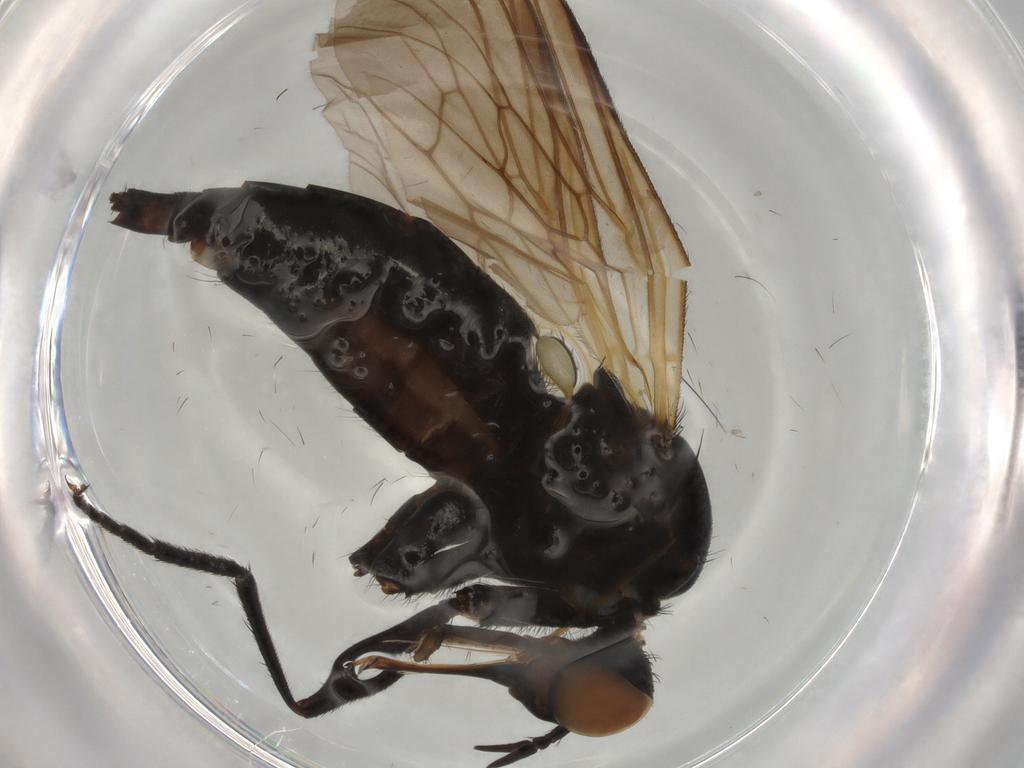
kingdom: Animalia
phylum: Arthropoda
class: Insecta
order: Diptera
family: Empididae
